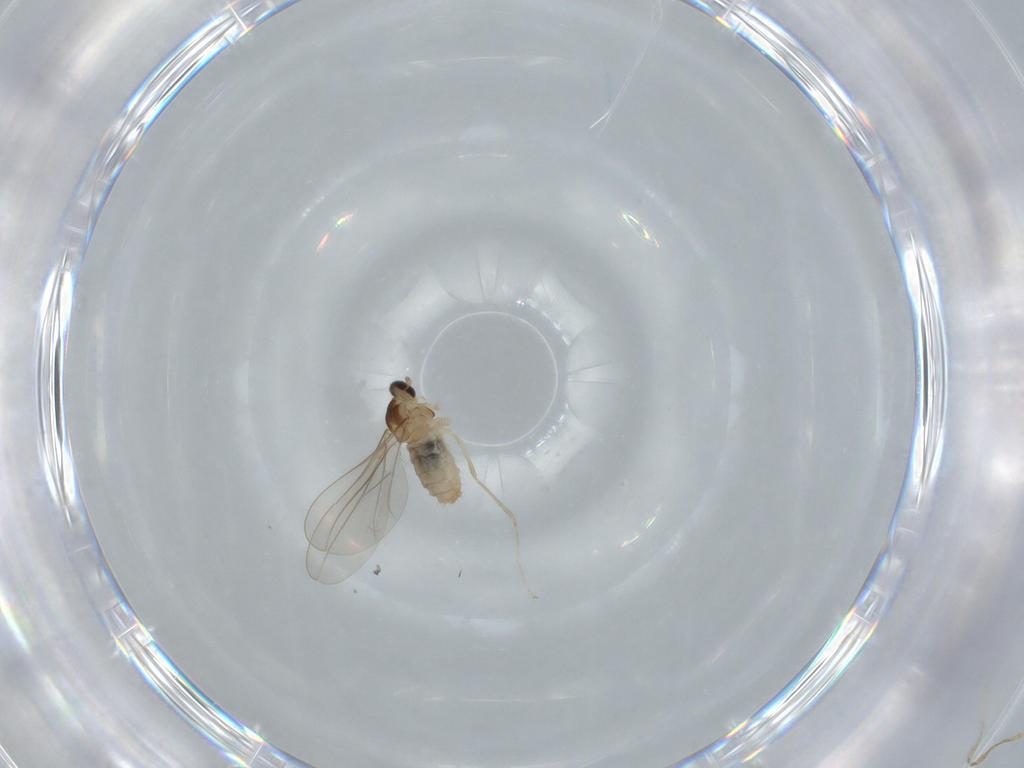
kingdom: Animalia
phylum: Arthropoda
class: Insecta
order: Diptera
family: Cecidomyiidae
